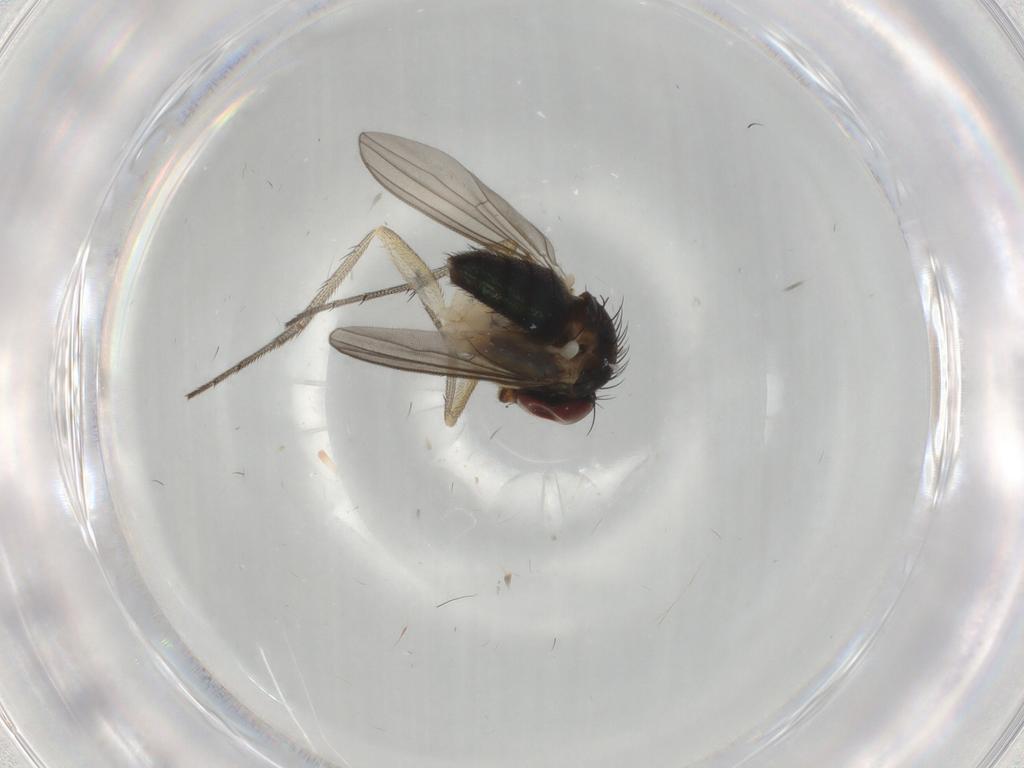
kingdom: Animalia
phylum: Arthropoda
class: Insecta
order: Diptera
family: Dolichopodidae
